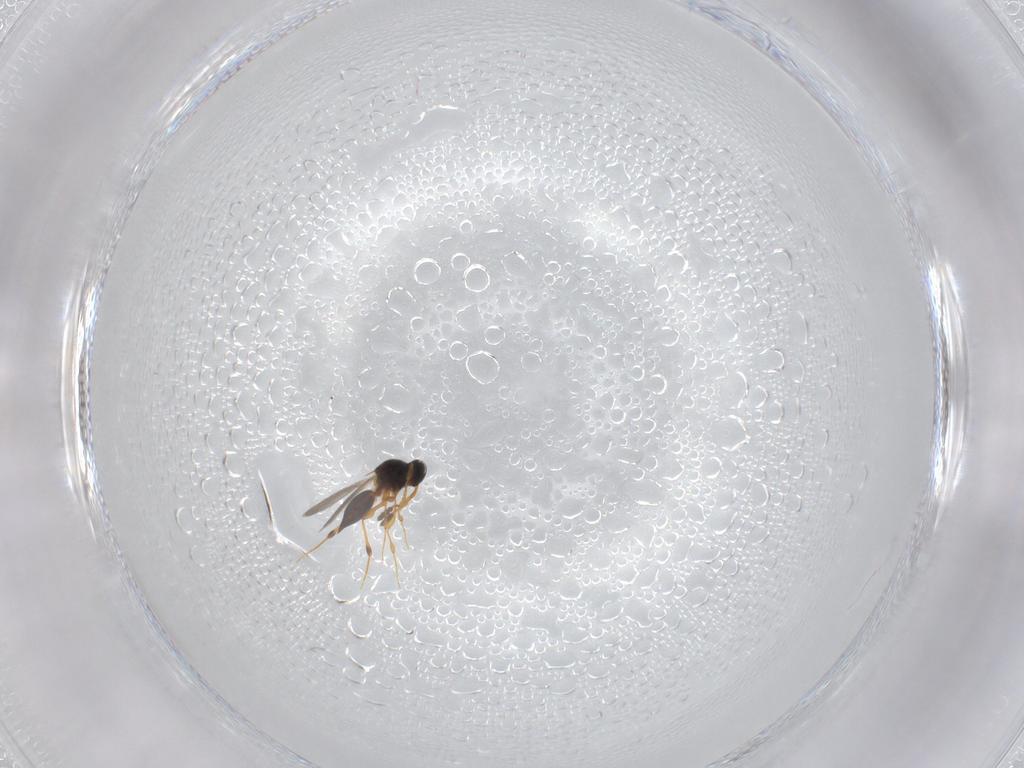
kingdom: Animalia
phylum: Arthropoda
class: Insecta
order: Hymenoptera
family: Platygastridae
